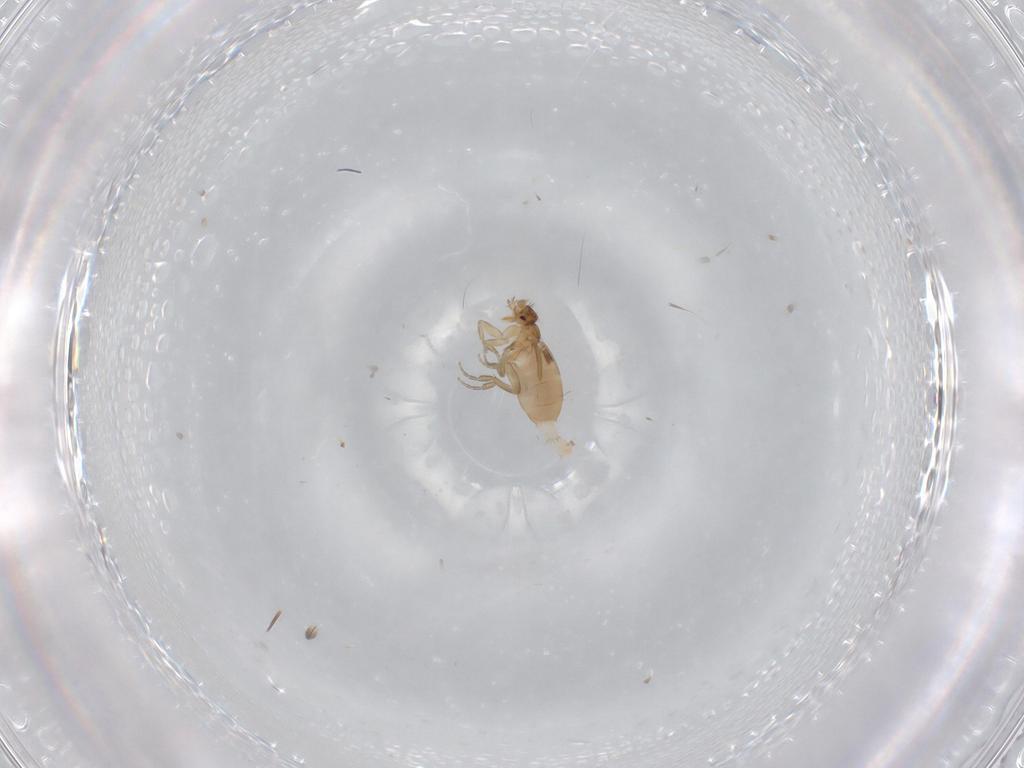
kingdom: Animalia
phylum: Arthropoda
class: Insecta
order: Diptera
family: Phoridae
